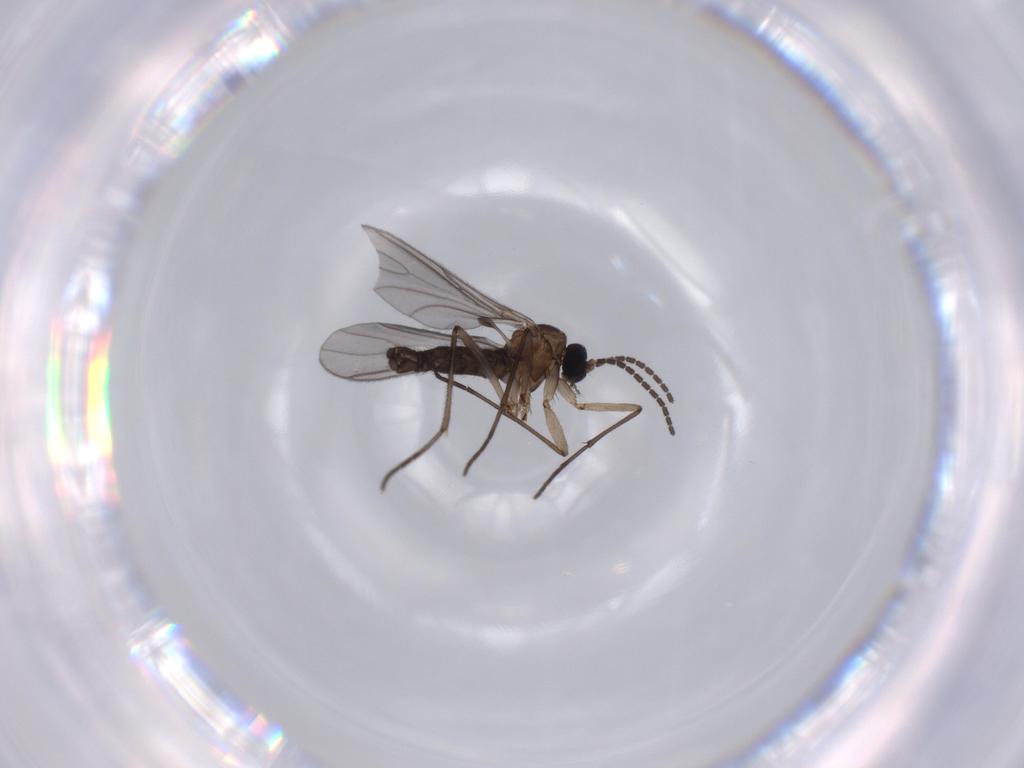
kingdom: Animalia
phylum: Arthropoda
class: Insecta
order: Diptera
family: Sciaridae
